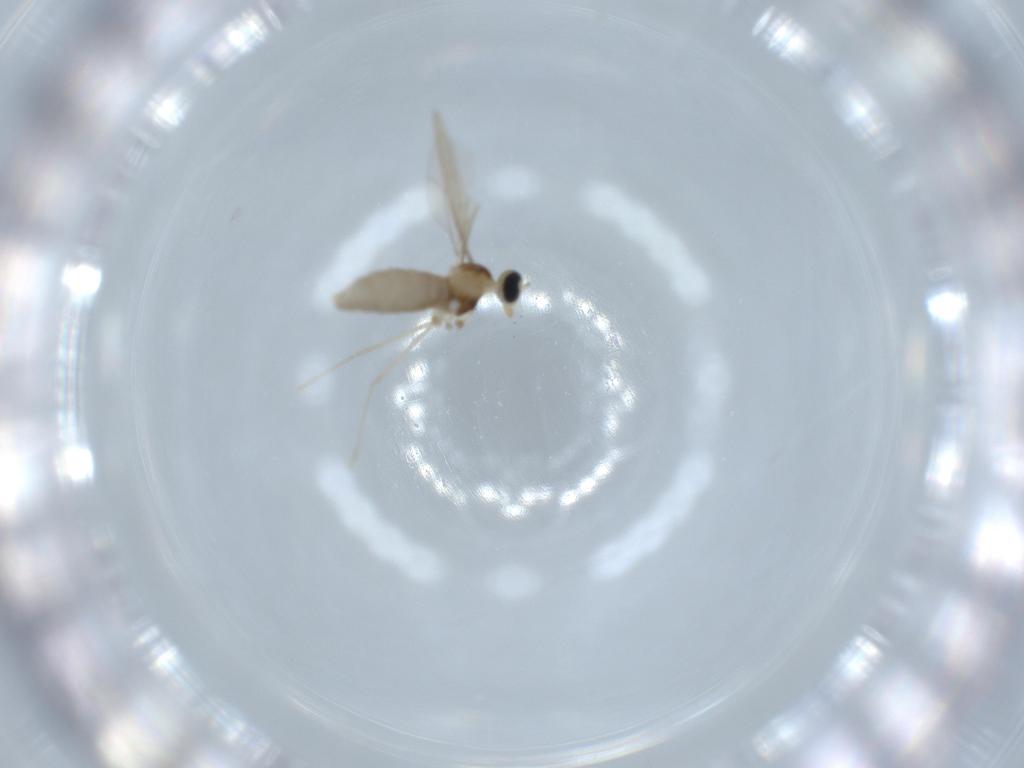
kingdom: Animalia
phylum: Arthropoda
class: Insecta
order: Diptera
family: Cecidomyiidae
